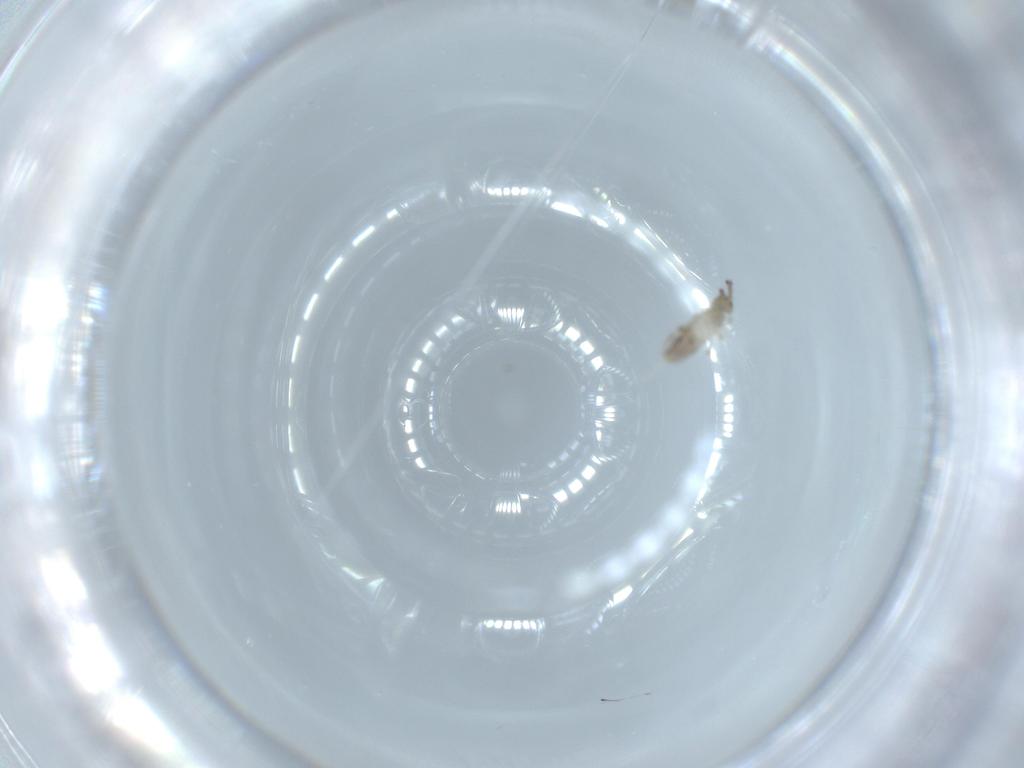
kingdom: Animalia
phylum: Arthropoda
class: Collembola
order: Entomobryomorpha
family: Entomobryidae
